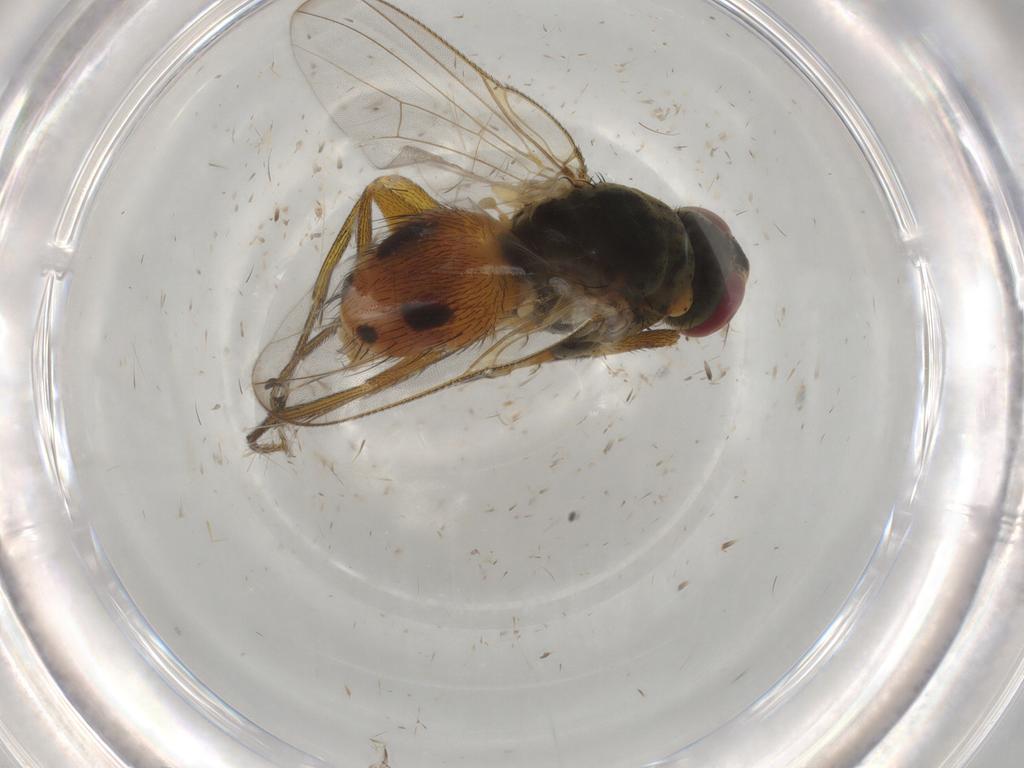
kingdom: Animalia
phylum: Arthropoda
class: Insecta
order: Diptera
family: Muscidae
